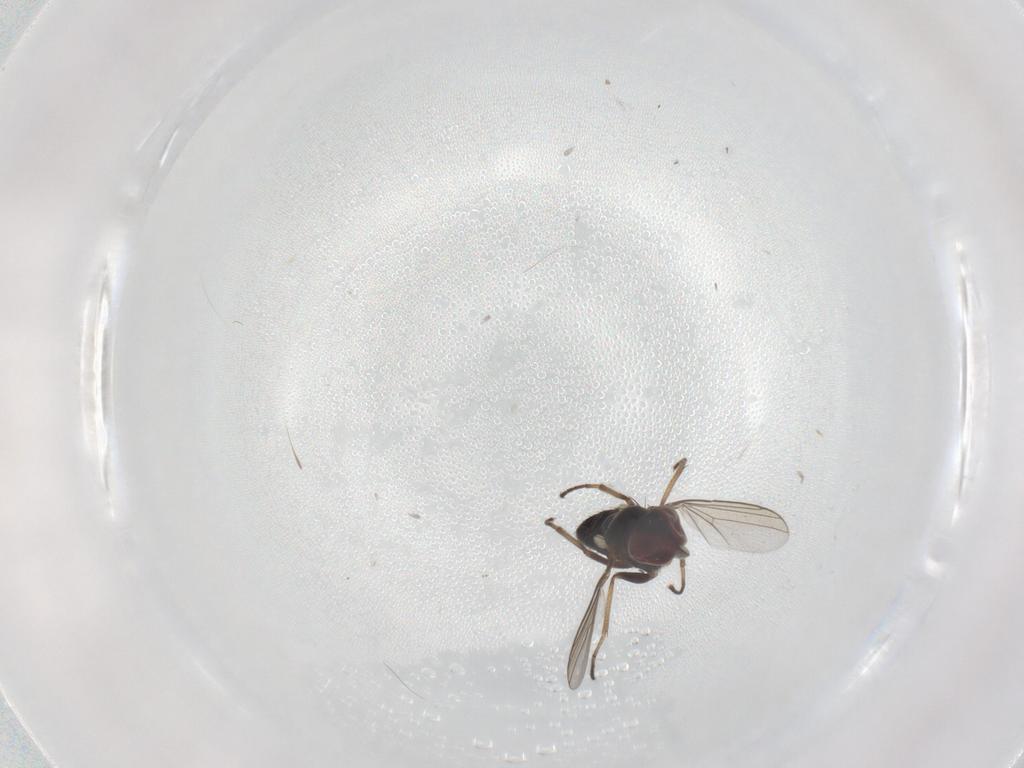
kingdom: Animalia
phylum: Arthropoda
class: Insecta
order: Diptera
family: Dolichopodidae
